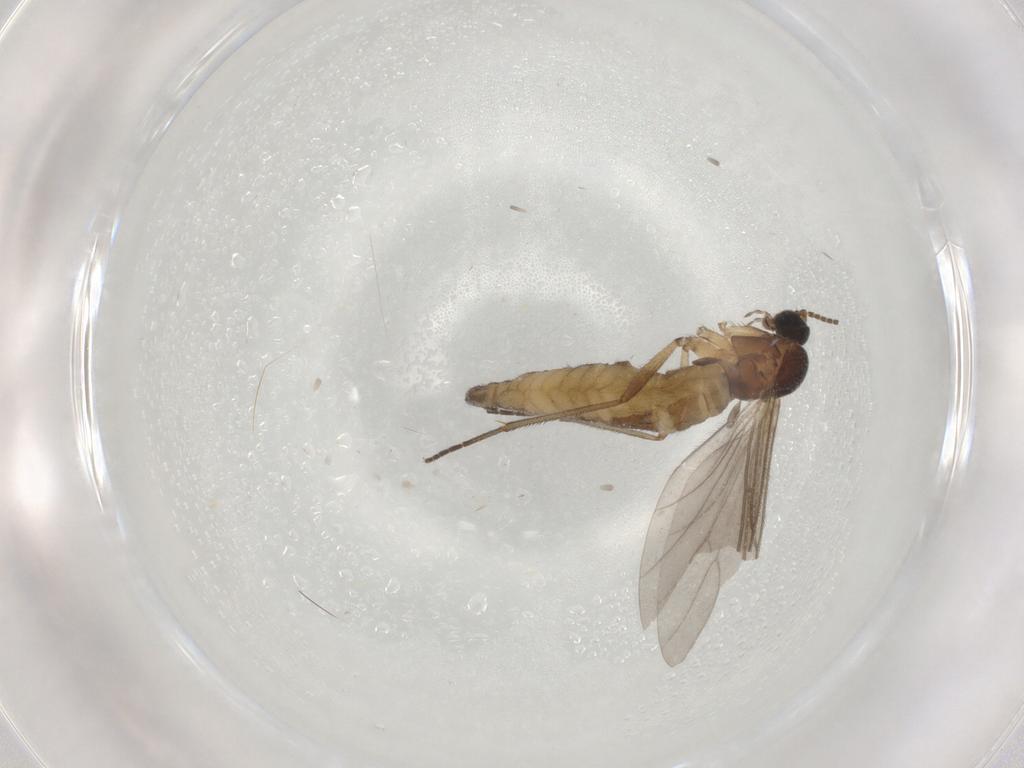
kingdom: Animalia
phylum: Arthropoda
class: Insecta
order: Diptera
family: Sciaridae
